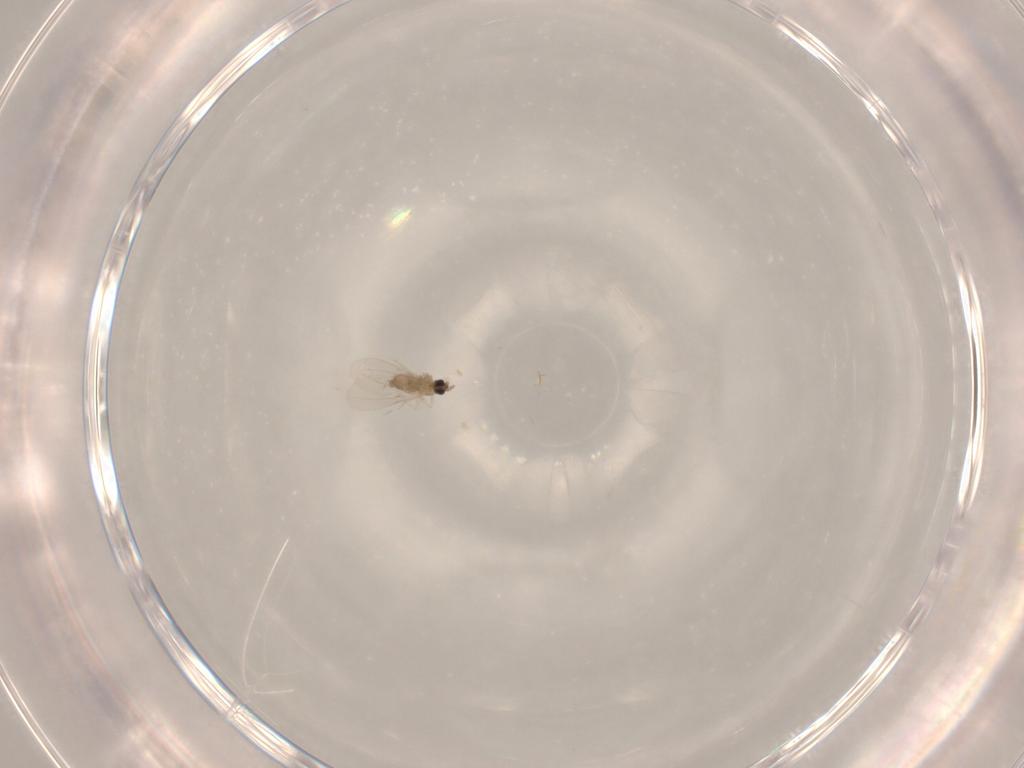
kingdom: Animalia
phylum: Arthropoda
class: Insecta
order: Diptera
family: Cecidomyiidae
